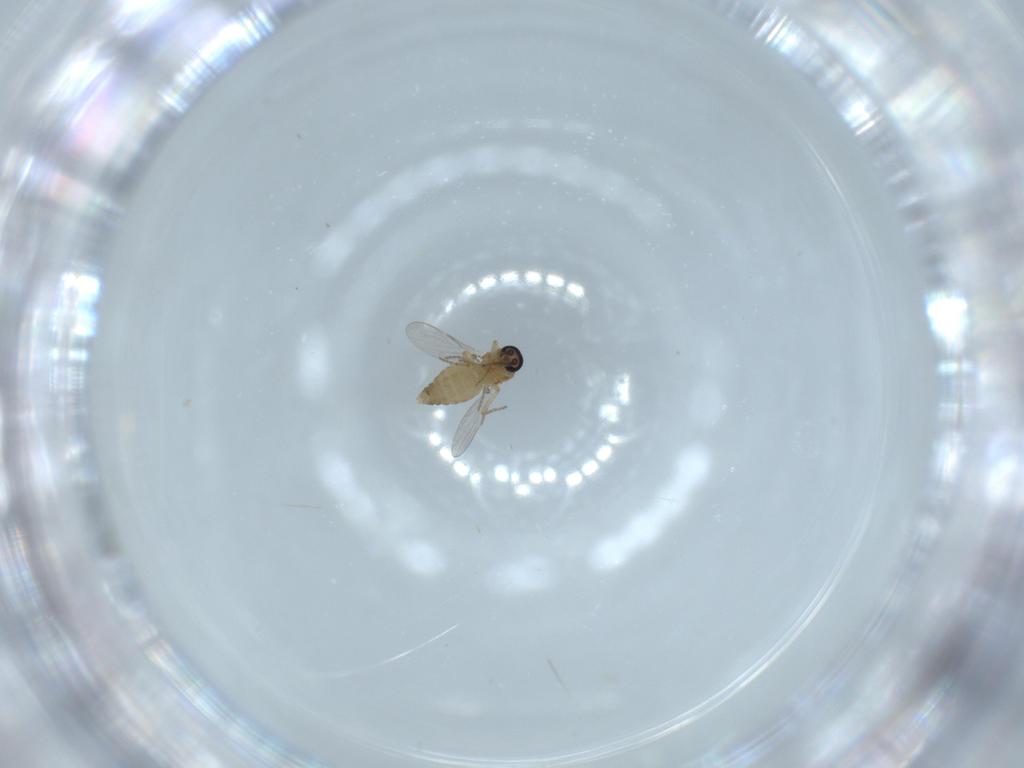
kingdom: Animalia
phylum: Arthropoda
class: Insecta
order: Diptera
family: Ceratopogonidae
